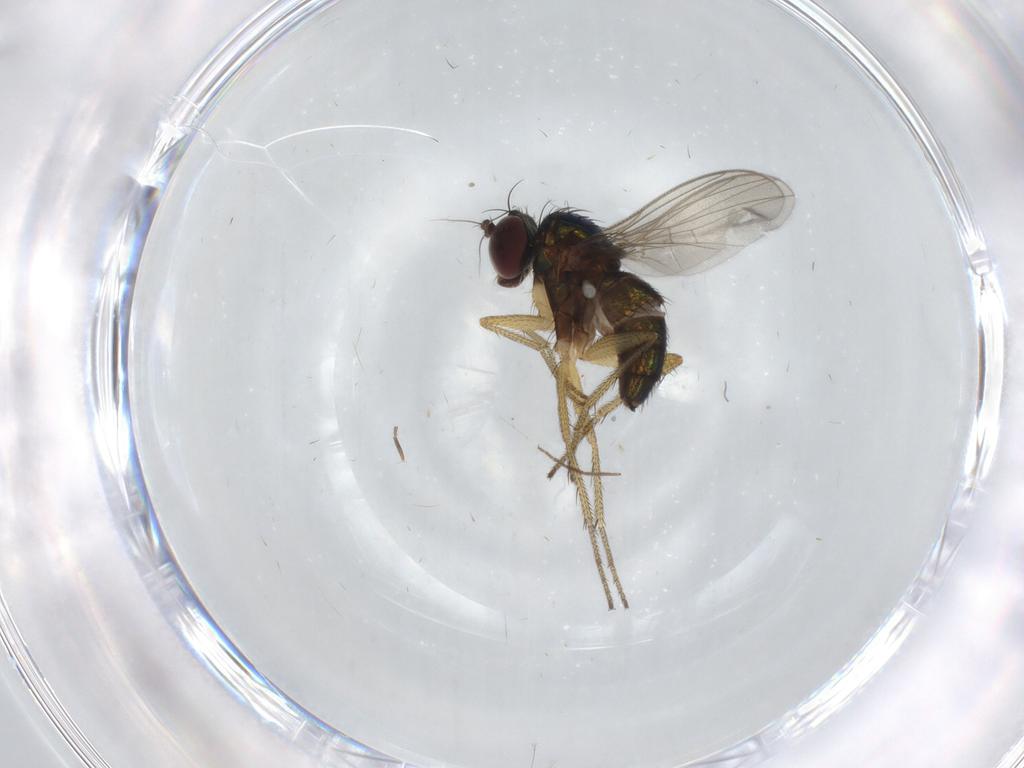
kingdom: Animalia
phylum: Arthropoda
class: Insecta
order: Diptera
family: Dolichopodidae
